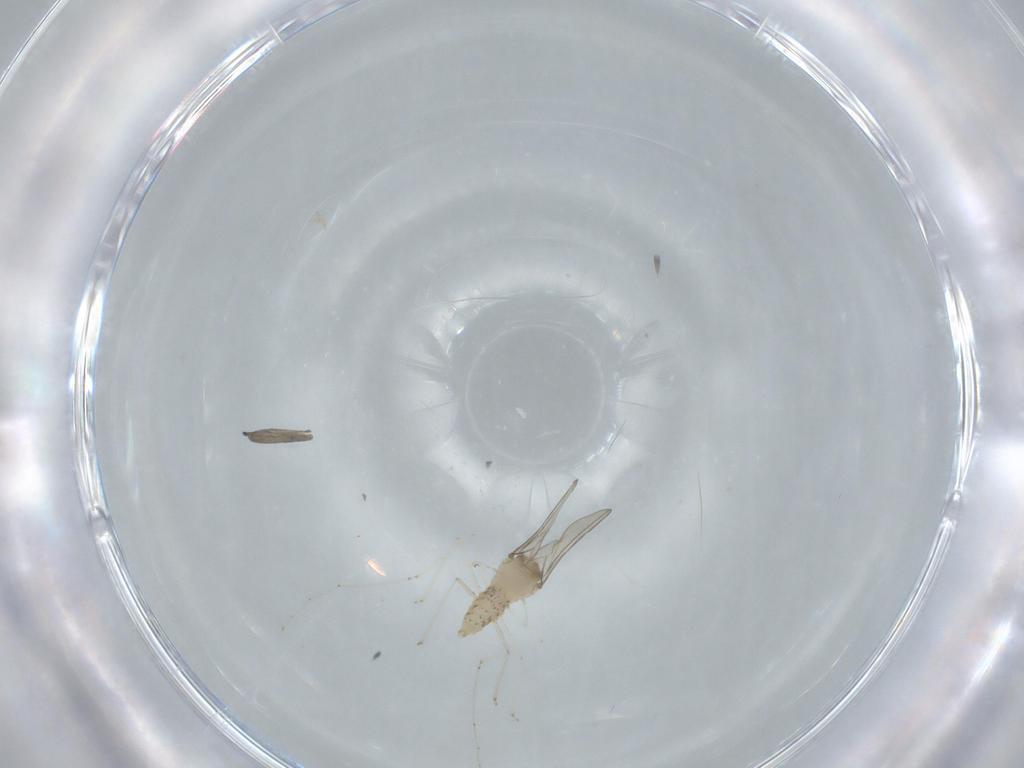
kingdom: Animalia
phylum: Arthropoda
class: Insecta
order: Diptera
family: Cecidomyiidae
